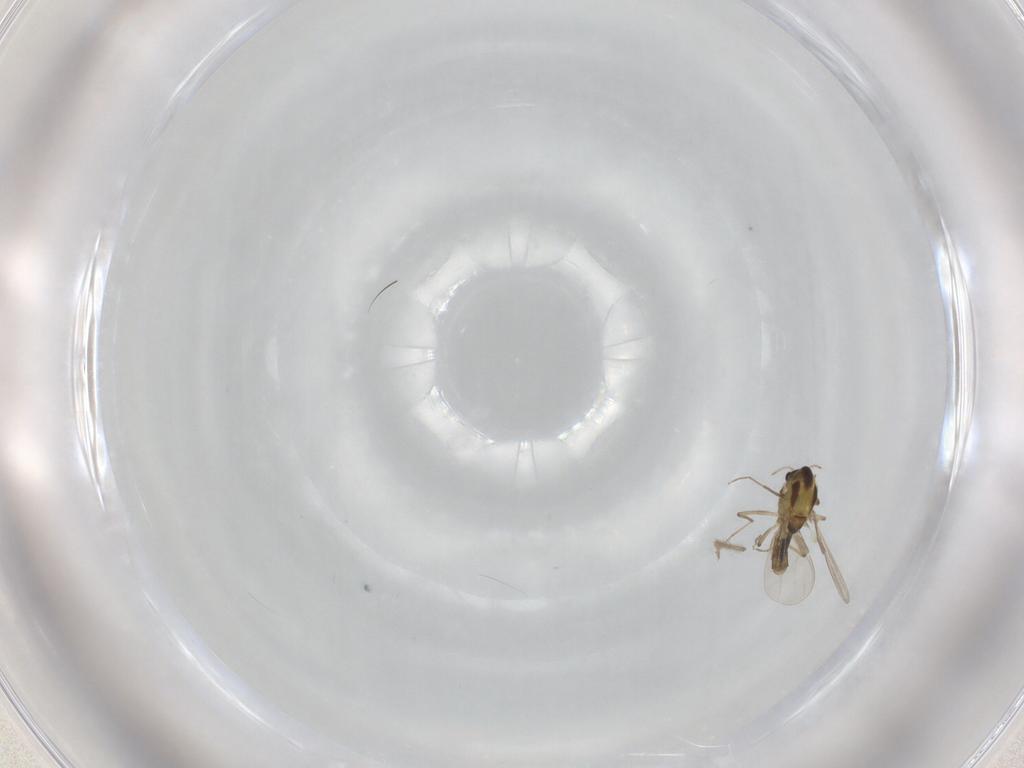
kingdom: Animalia
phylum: Arthropoda
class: Insecta
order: Diptera
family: Chironomidae
